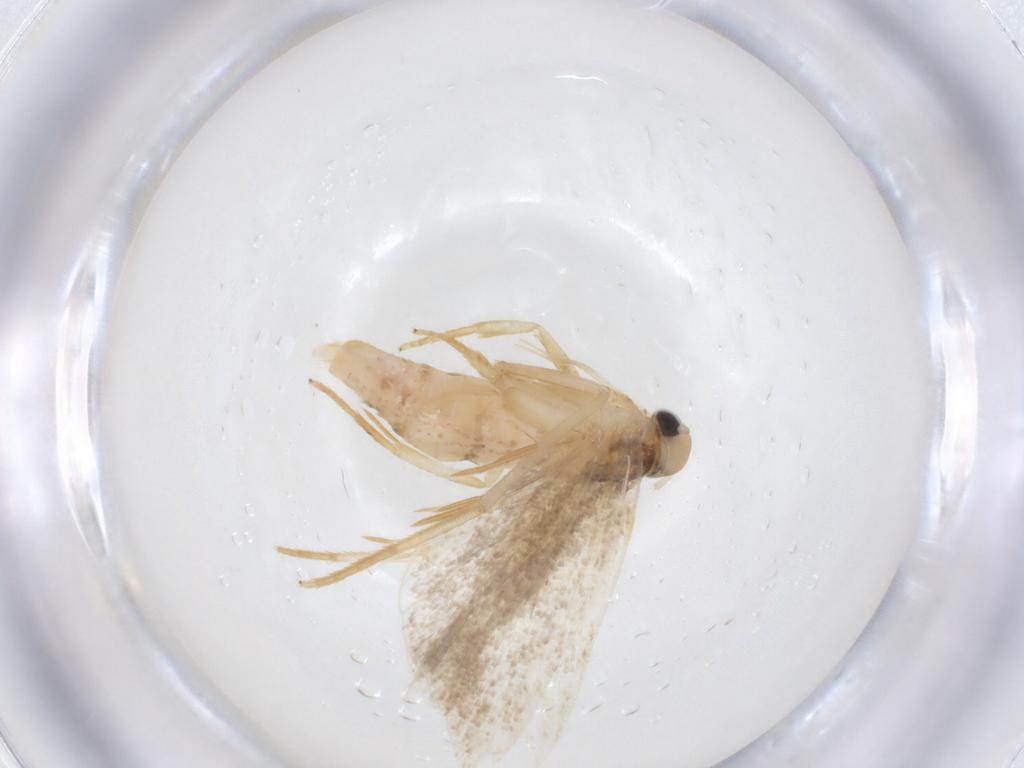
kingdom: Animalia
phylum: Arthropoda
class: Insecta
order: Lepidoptera
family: Gelechiidae
